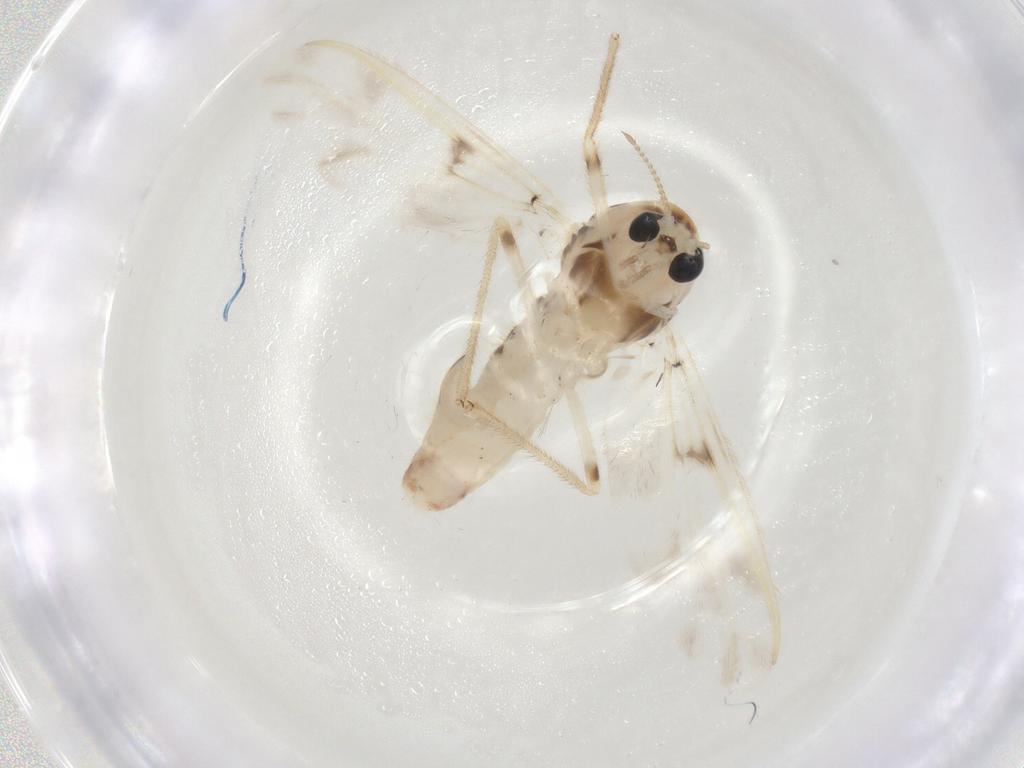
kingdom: Animalia
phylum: Arthropoda
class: Insecta
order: Diptera
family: Chironomidae
